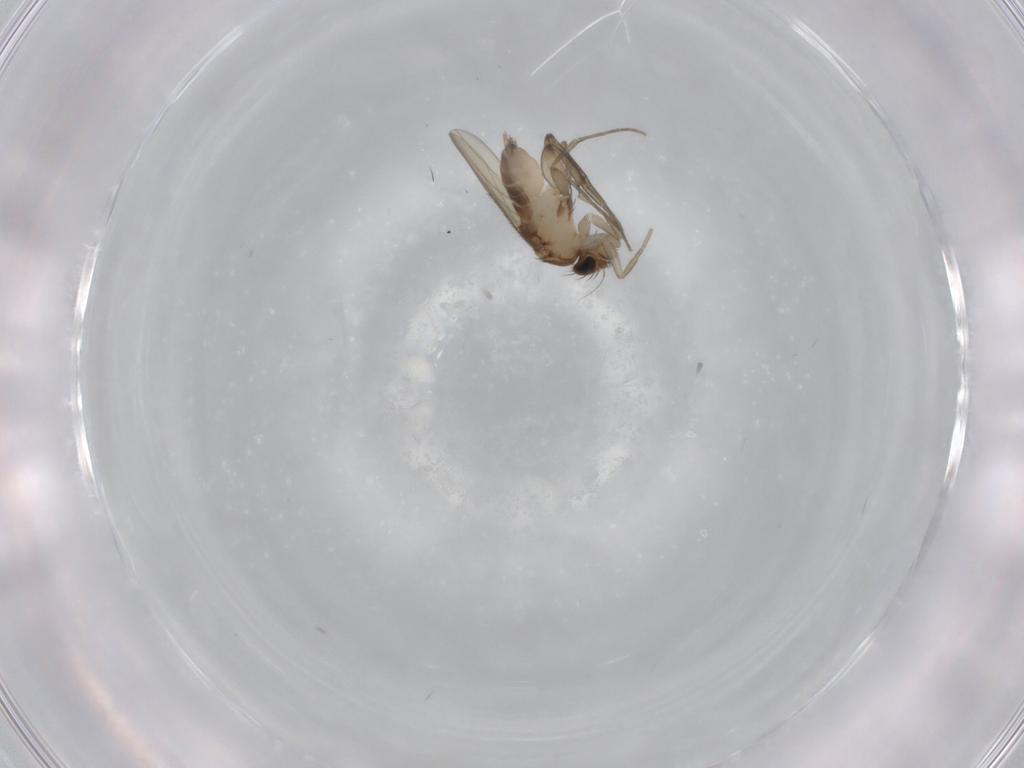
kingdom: Animalia
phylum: Arthropoda
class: Insecta
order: Diptera
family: Phoridae
